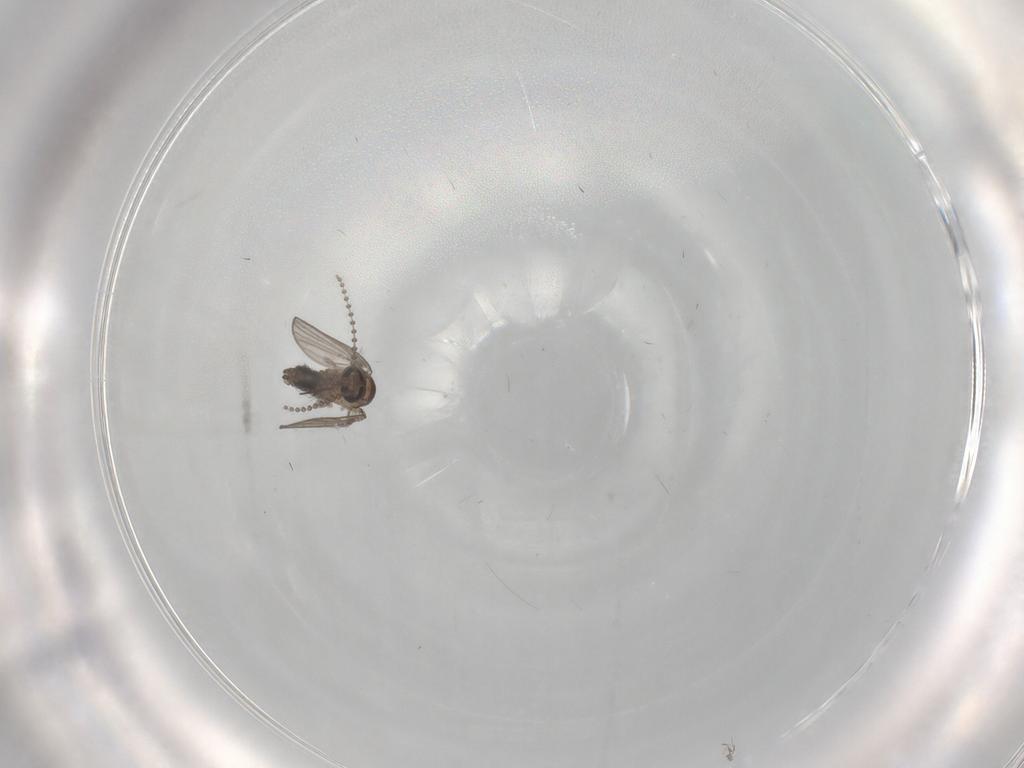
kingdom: Animalia
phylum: Arthropoda
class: Insecta
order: Diptera
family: Psychodidae
